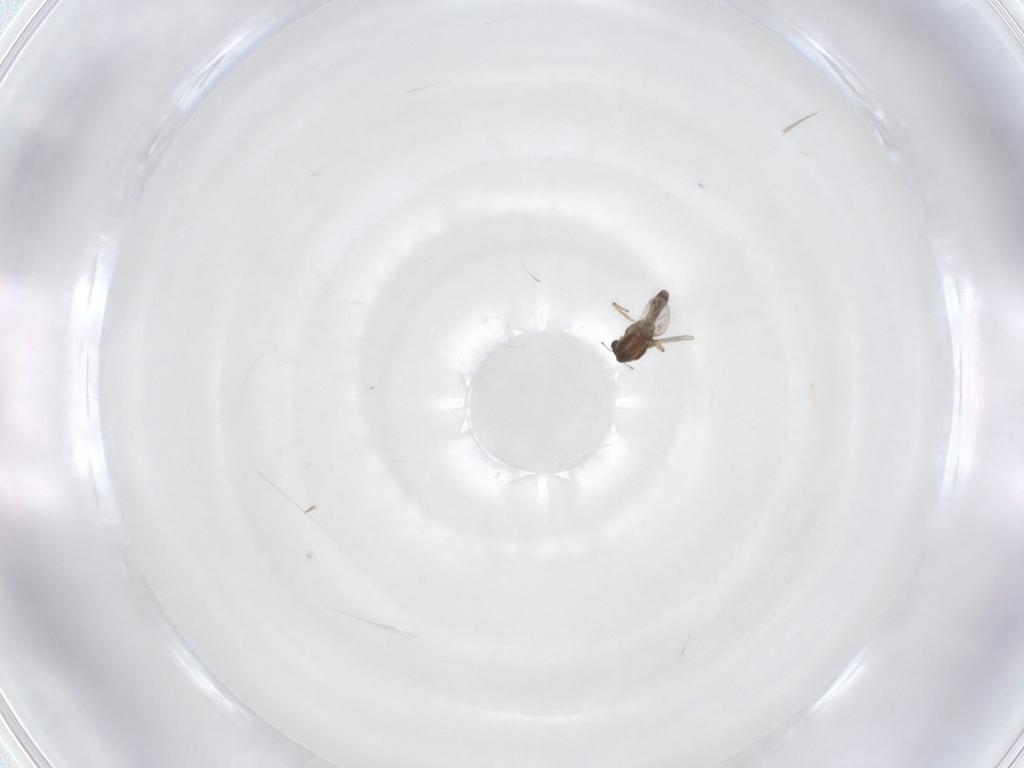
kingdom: Animalia
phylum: Arthropoda
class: Insecta
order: Diptera
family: Chironomidae
